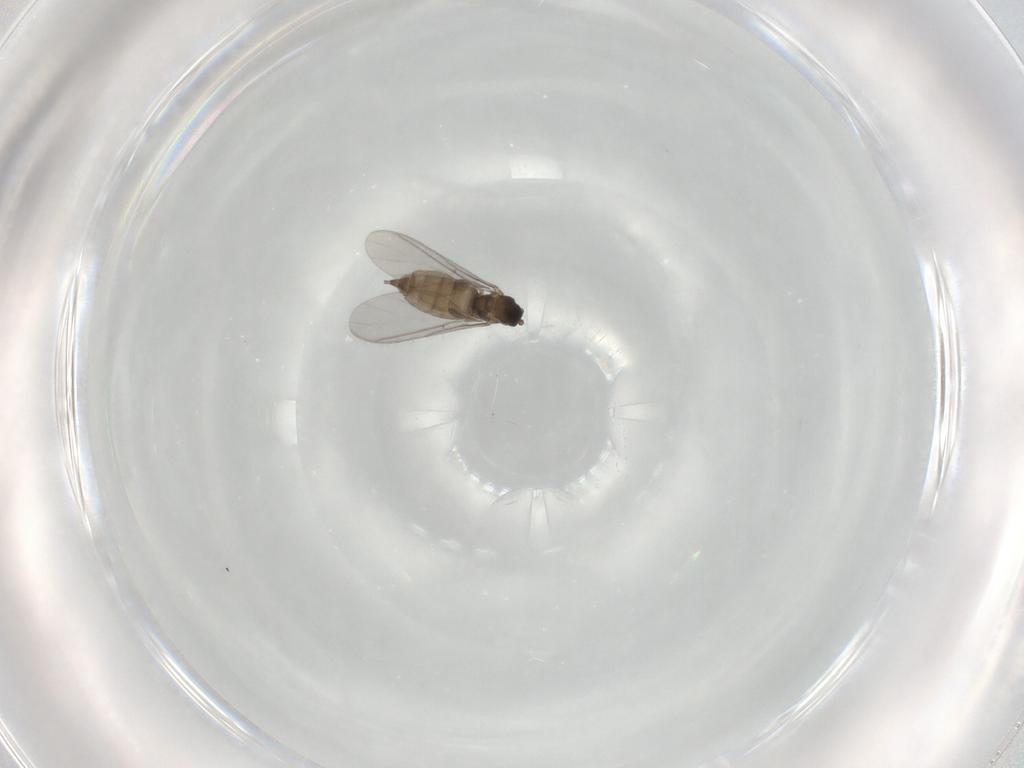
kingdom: Animalia
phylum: Arthropoda
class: Insecta
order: Diptera
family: Sciaridae
